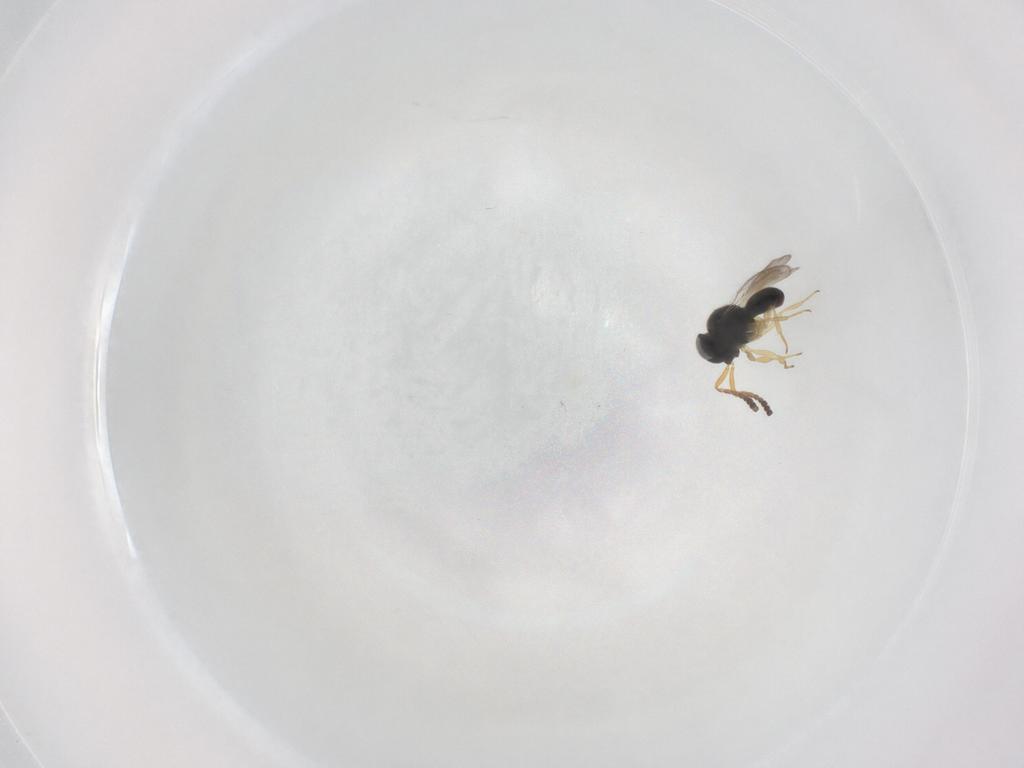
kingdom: Animalia
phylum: Arthropoda
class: Insecta
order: Hymenoptera
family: Scelionidae
